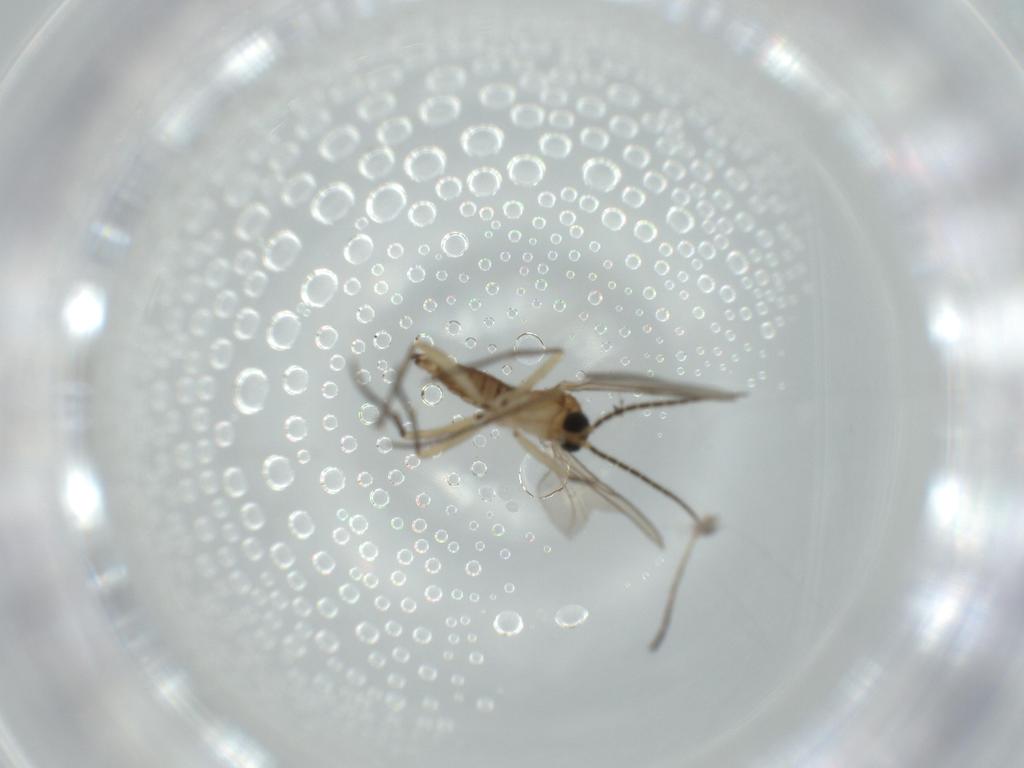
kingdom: Animalia
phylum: Arthropoda
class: Insecta
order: Diptera
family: Sciaridae
